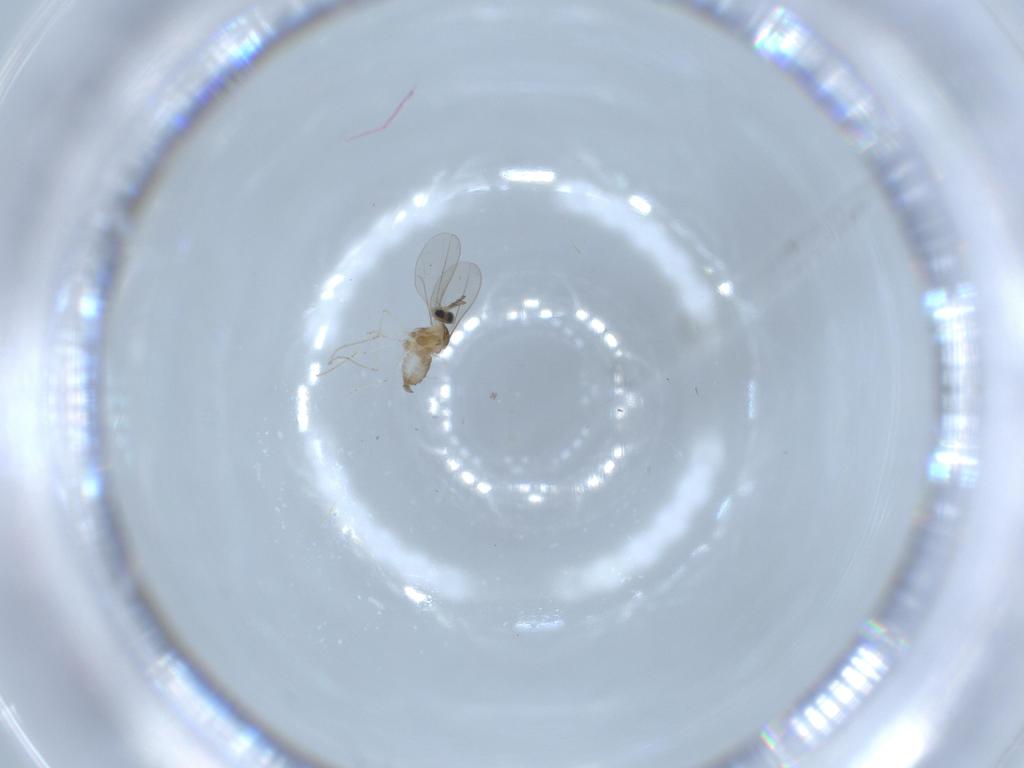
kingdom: Animalia
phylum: Arthropoda
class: Insecta
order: Diptera
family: Cecidomyiidae
